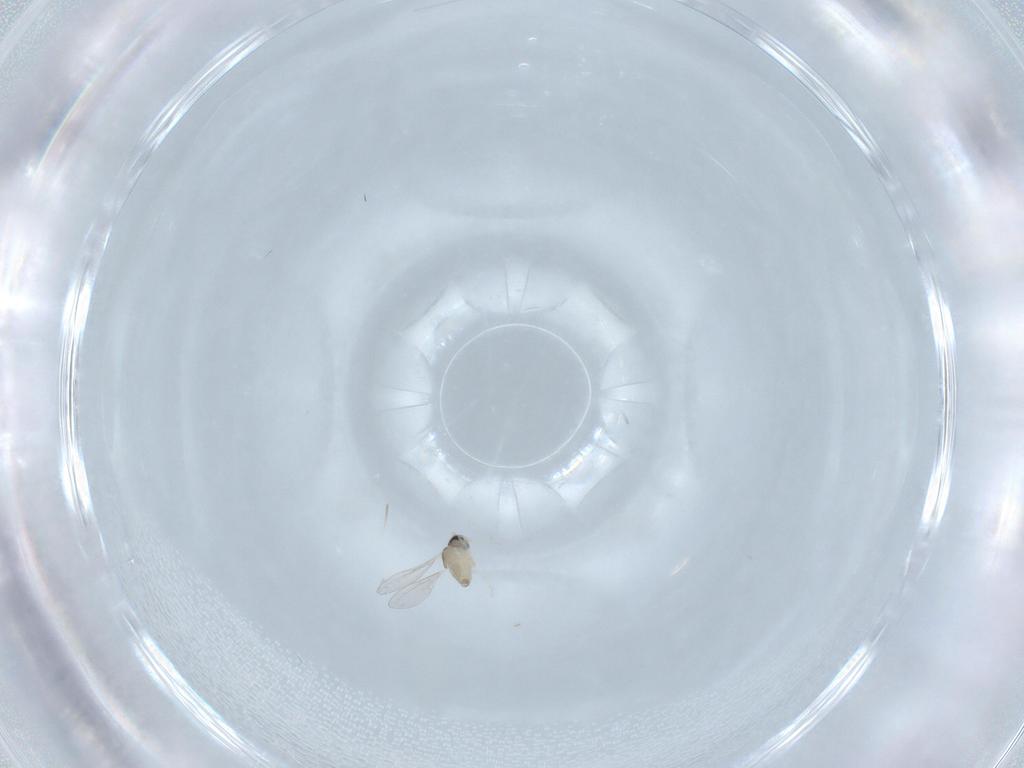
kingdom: Animalia
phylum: Arthropoda
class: Insecta
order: Diptera
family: Cecidomyiidae
